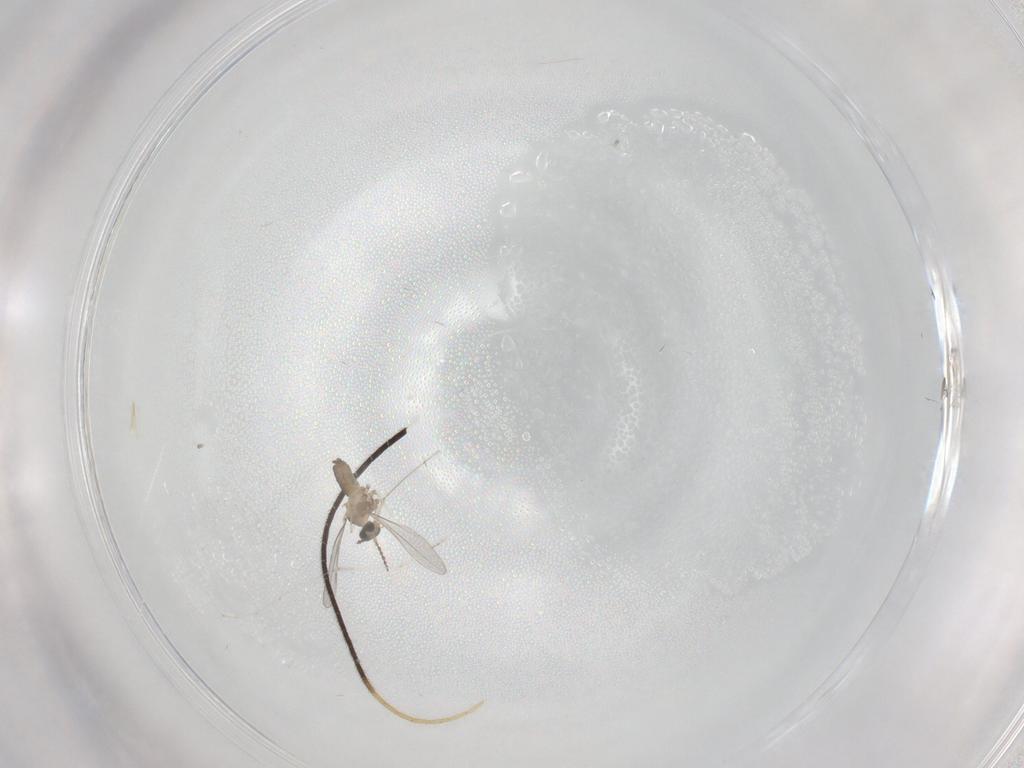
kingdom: Animalia
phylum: Arthropoda
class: Insecta
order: Diptera
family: Cecidomyiidae
